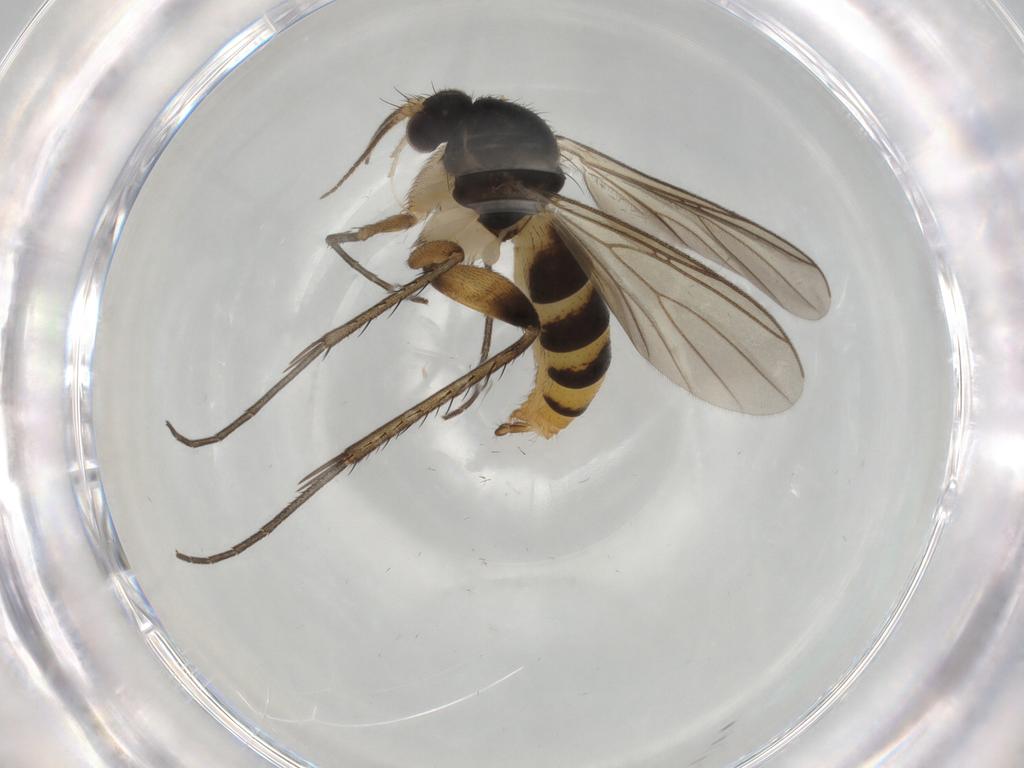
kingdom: Animalia
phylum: Arthropoda
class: Insecta
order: Diptera
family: Mycetophilidae
